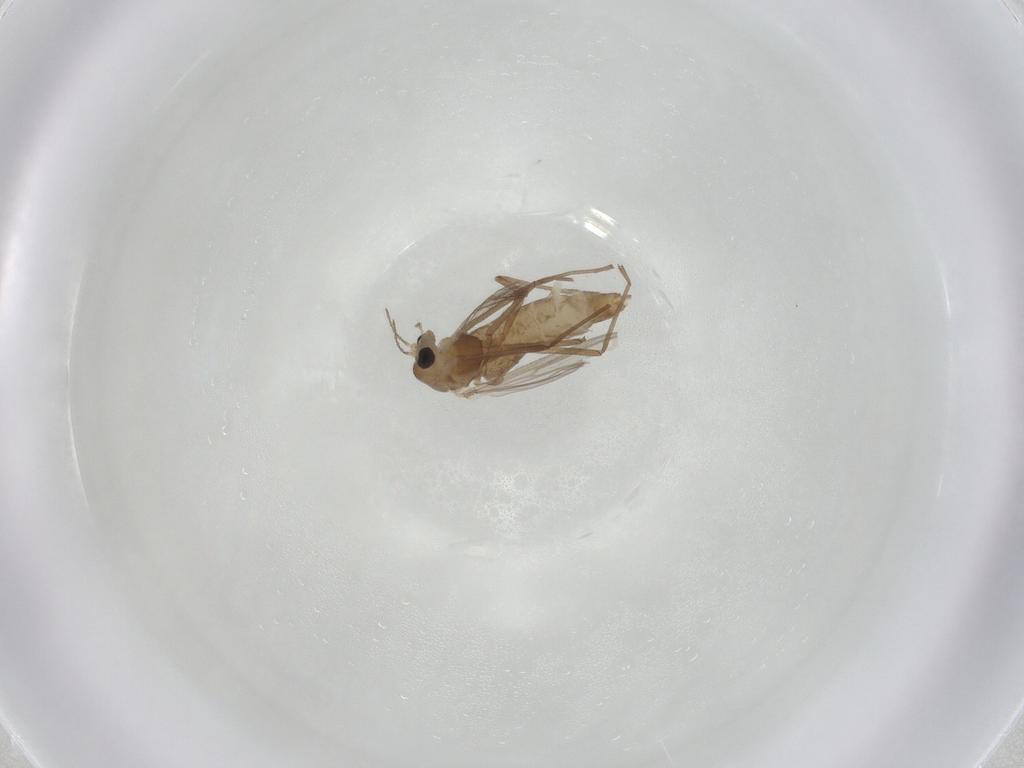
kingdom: Animalia
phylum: Arthropoda
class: Insecta
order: Diptera
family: Chironomidae
